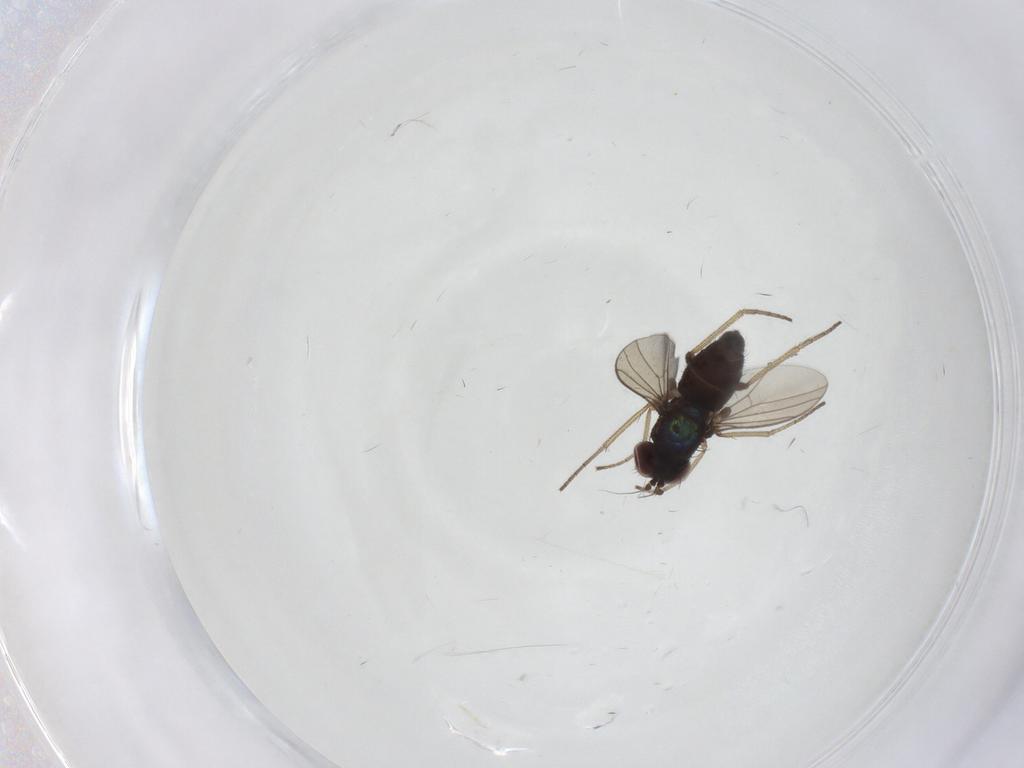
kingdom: Animalia
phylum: Arthropoda
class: Insecta
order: Diptera
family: Dolichopodidae
